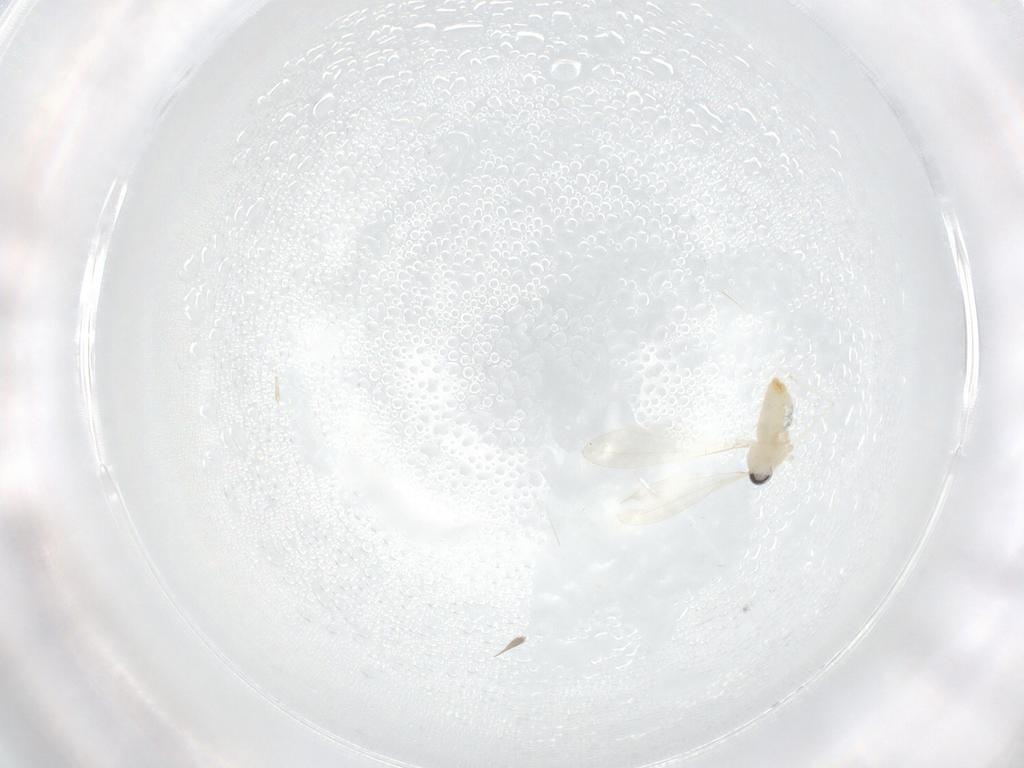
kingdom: Animalia
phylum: Arthropoda
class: Insecta
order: Diptera
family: Cecidomyiidae
